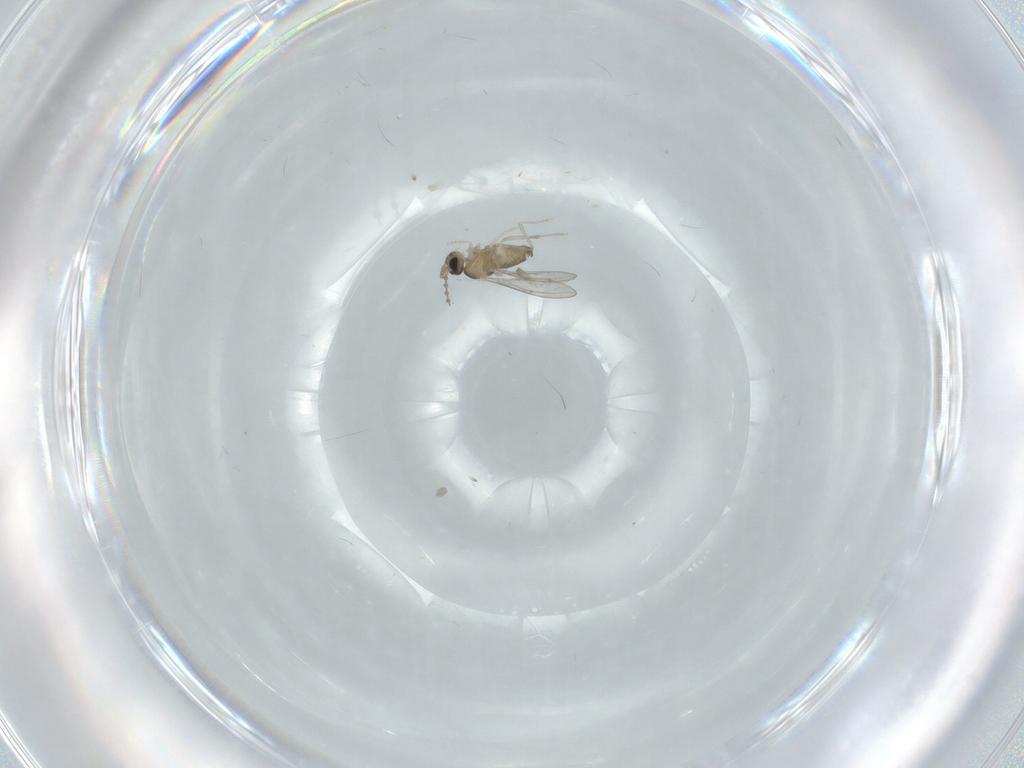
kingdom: Animalia
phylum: Arthropoda
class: Insecta
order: Diptera
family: Cecidomyiidae
